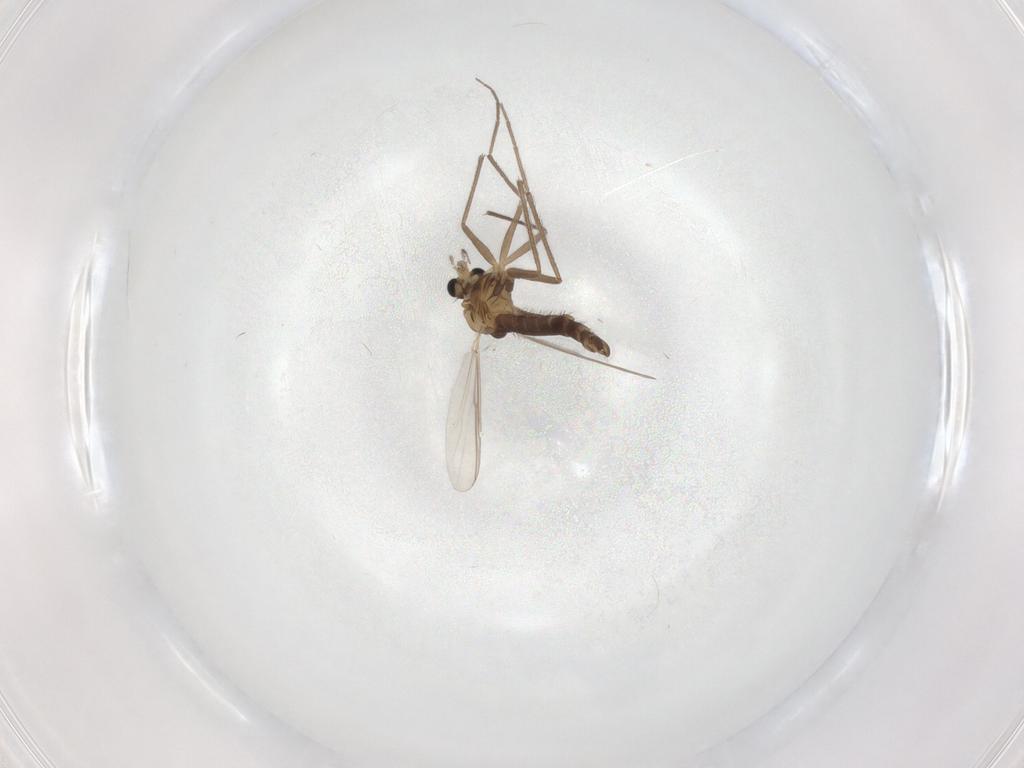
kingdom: Animalia
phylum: Arthropoda
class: Insecta
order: Diptera
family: Chironomidae
